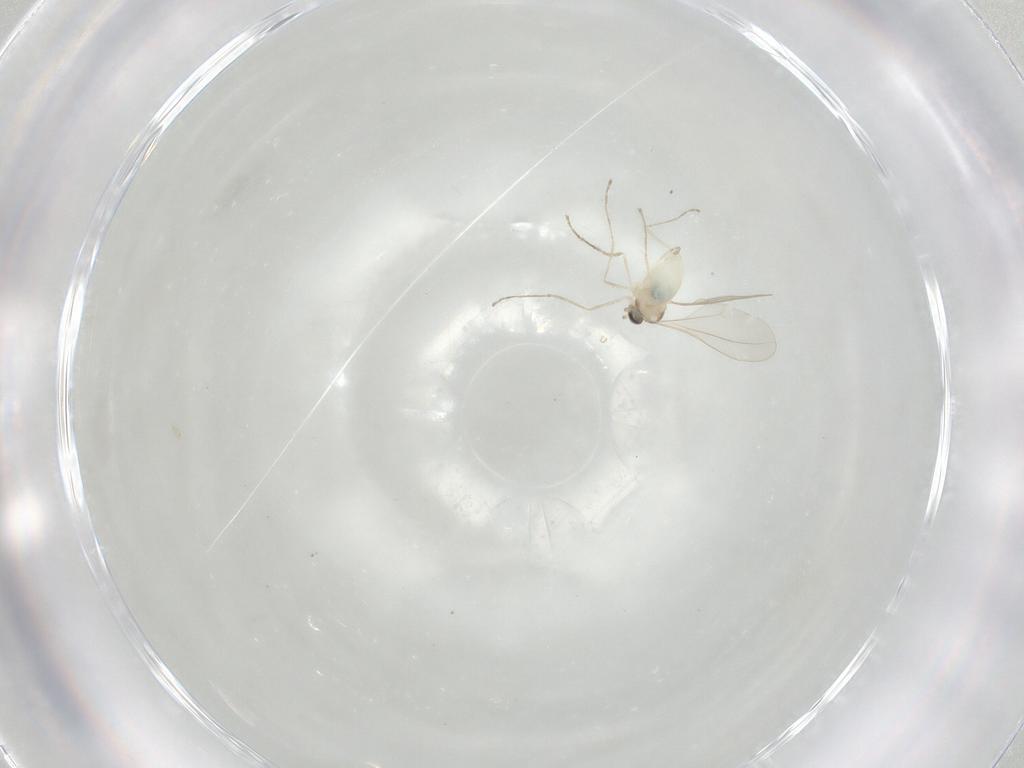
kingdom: Animalia
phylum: Arthropoda
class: Insecta
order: Diptera
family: Cecidomyiidae
